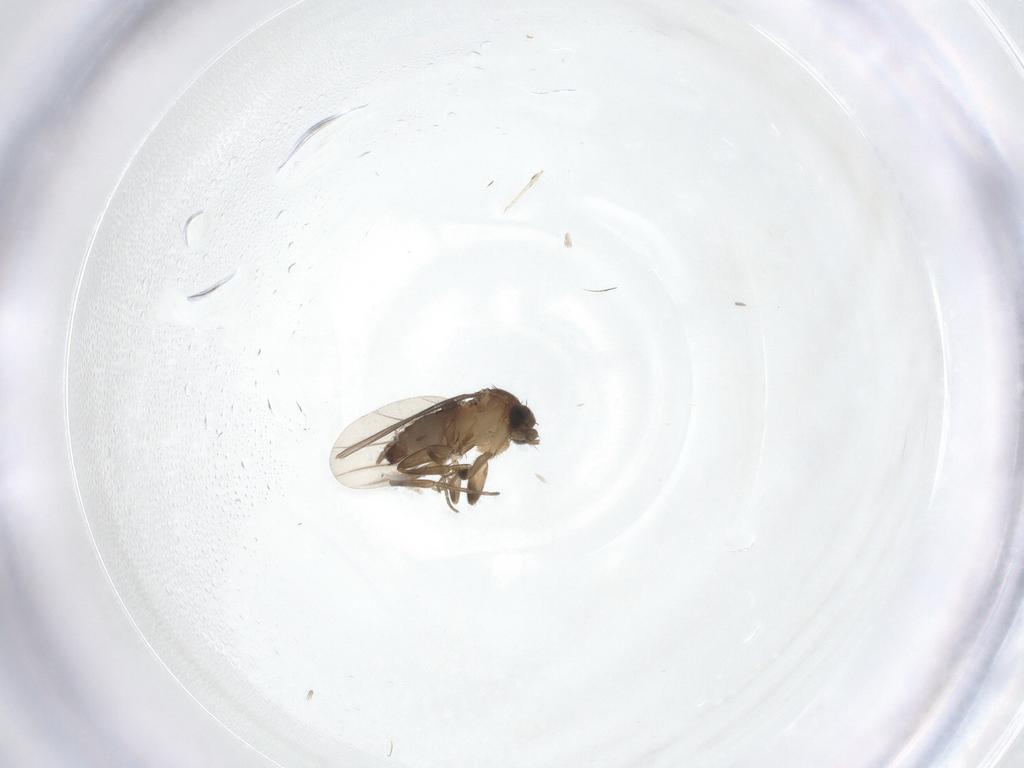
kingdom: Animalia
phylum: Arthropoda
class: Insecta
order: Diptera
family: Phoridae
